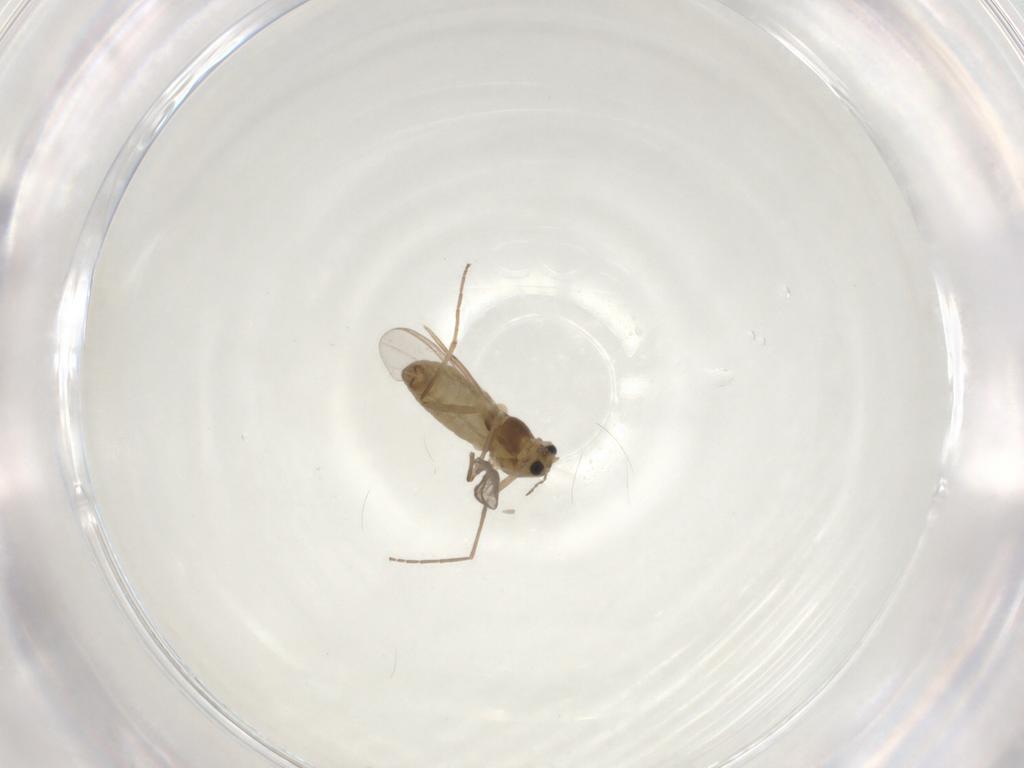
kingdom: Animalia
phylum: Arthropoda
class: Insecta
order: Diptera
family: Chironomidae
